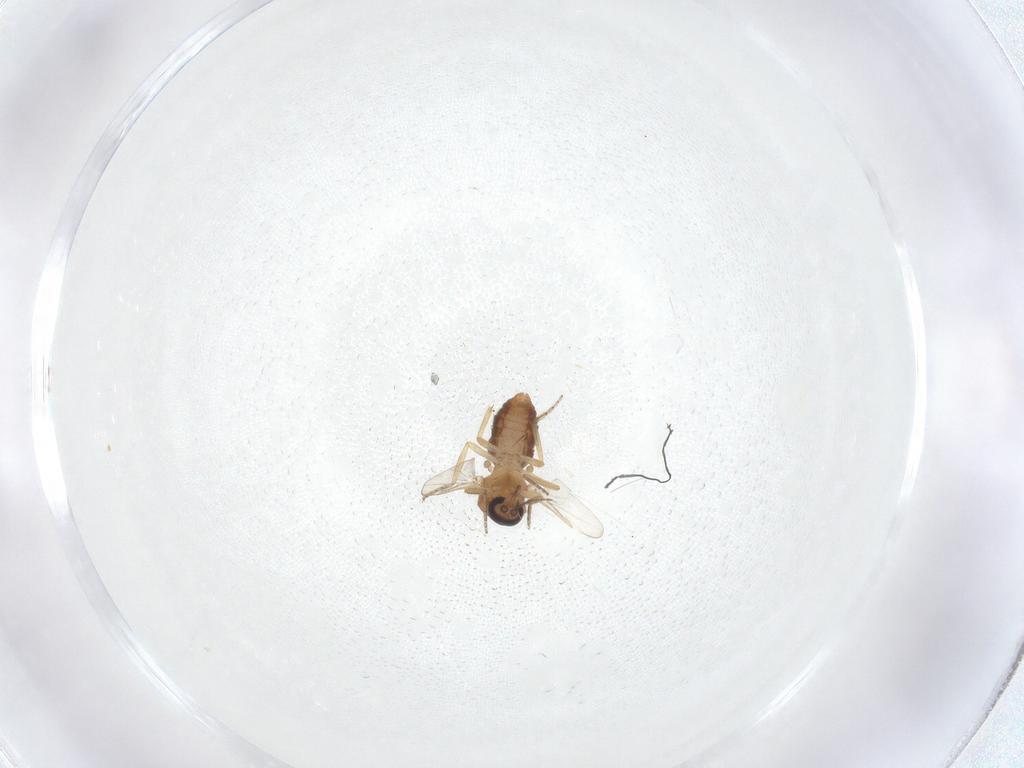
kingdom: Animalia
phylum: Arthropoda
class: Insecta
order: Diptera
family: Ceratopogonidae
